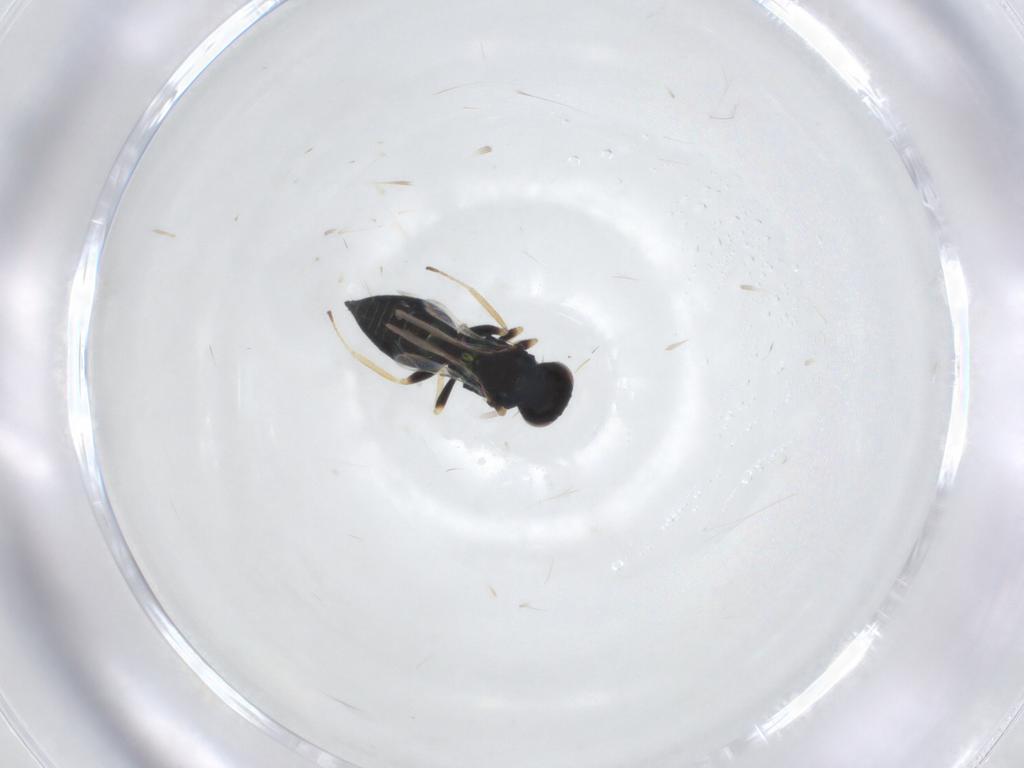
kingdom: Animalia
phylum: Arthropoda
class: Insecta
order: Hymenoptera
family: Eulophidae
